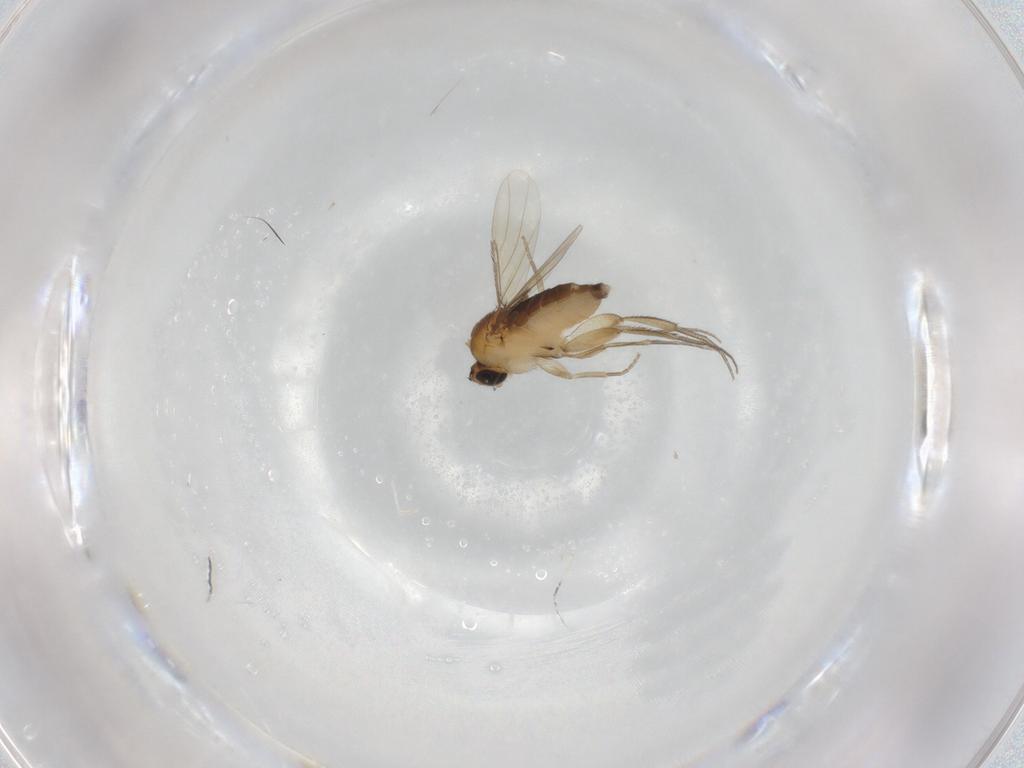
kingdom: Animalia
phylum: Arthropoda
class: Insecta
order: Diptera
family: Phoridae
